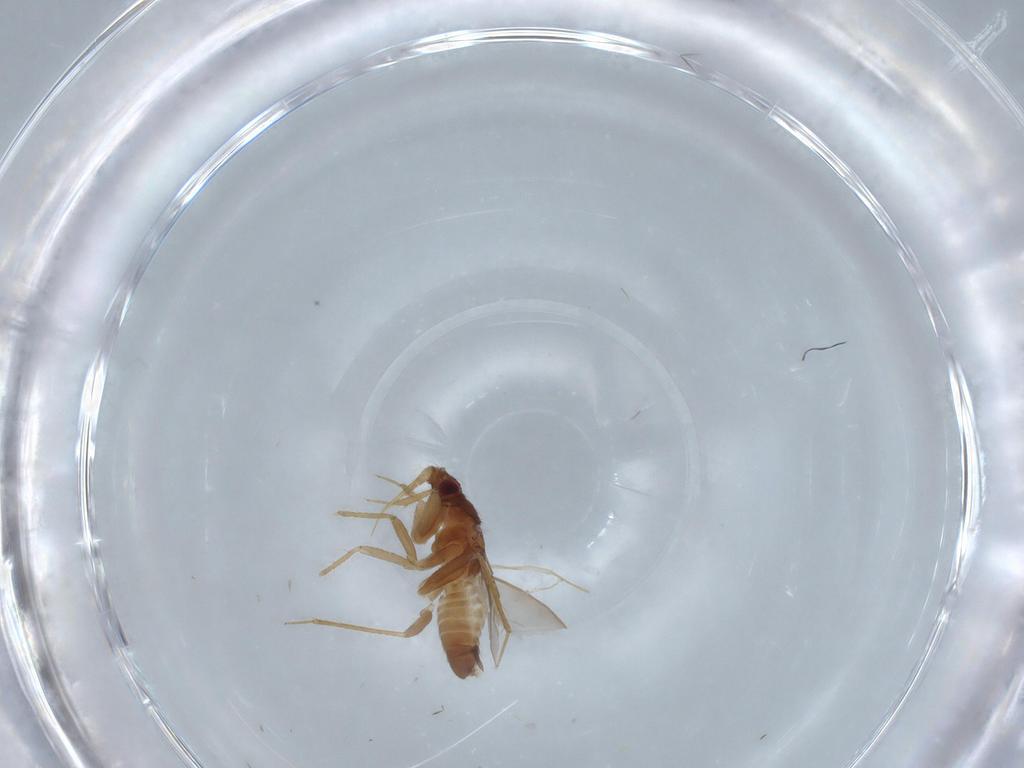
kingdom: Animalia
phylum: Arthropoda
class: Insecta
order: Hemiptera
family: Ceratocombidae
